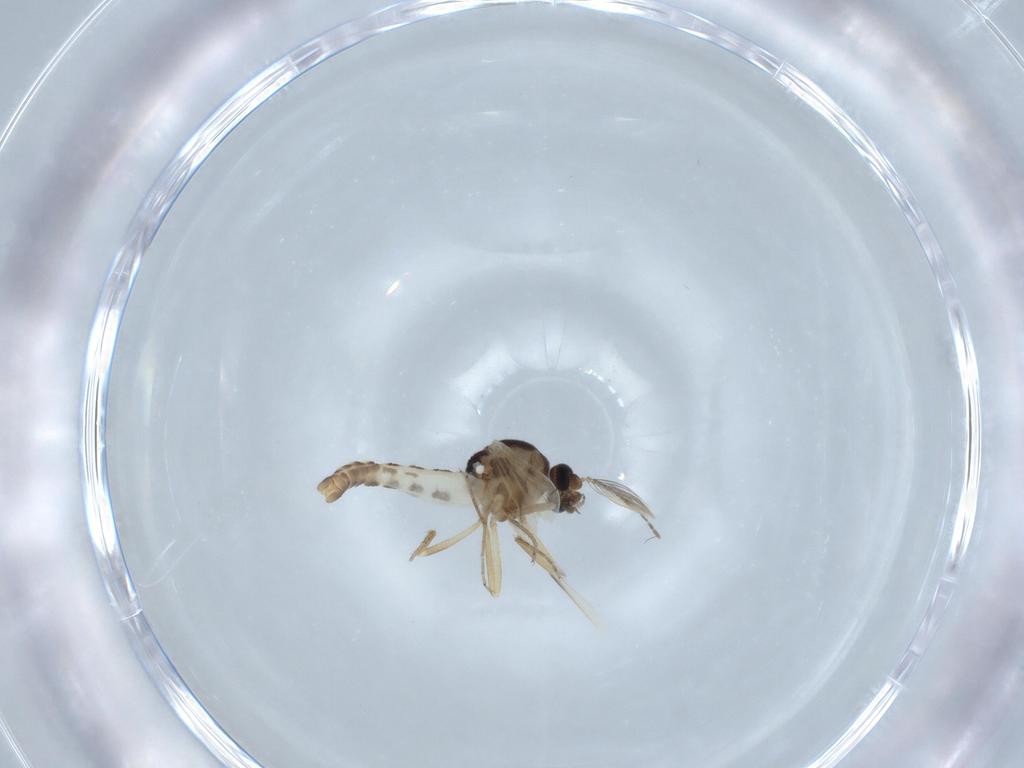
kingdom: Animalia
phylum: Arthropoda
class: Insecta
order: Diptera
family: Ceratopogonidae
